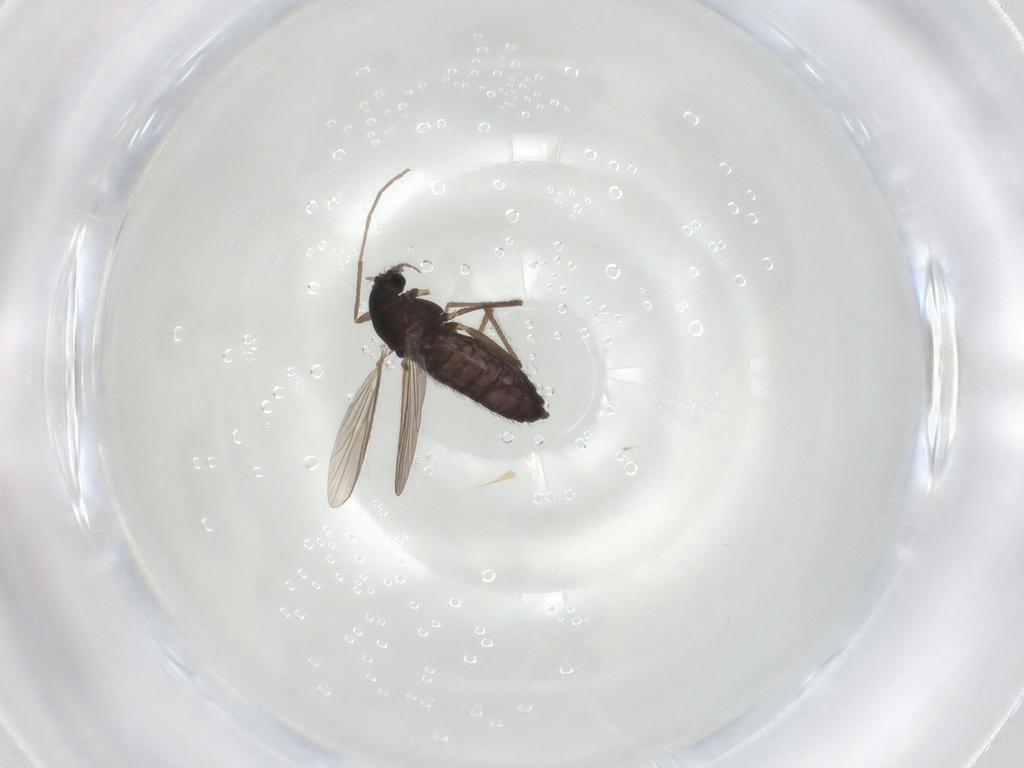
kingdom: Animalia
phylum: Arthropoda
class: Insecta
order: Diptera
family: Chironomidae
